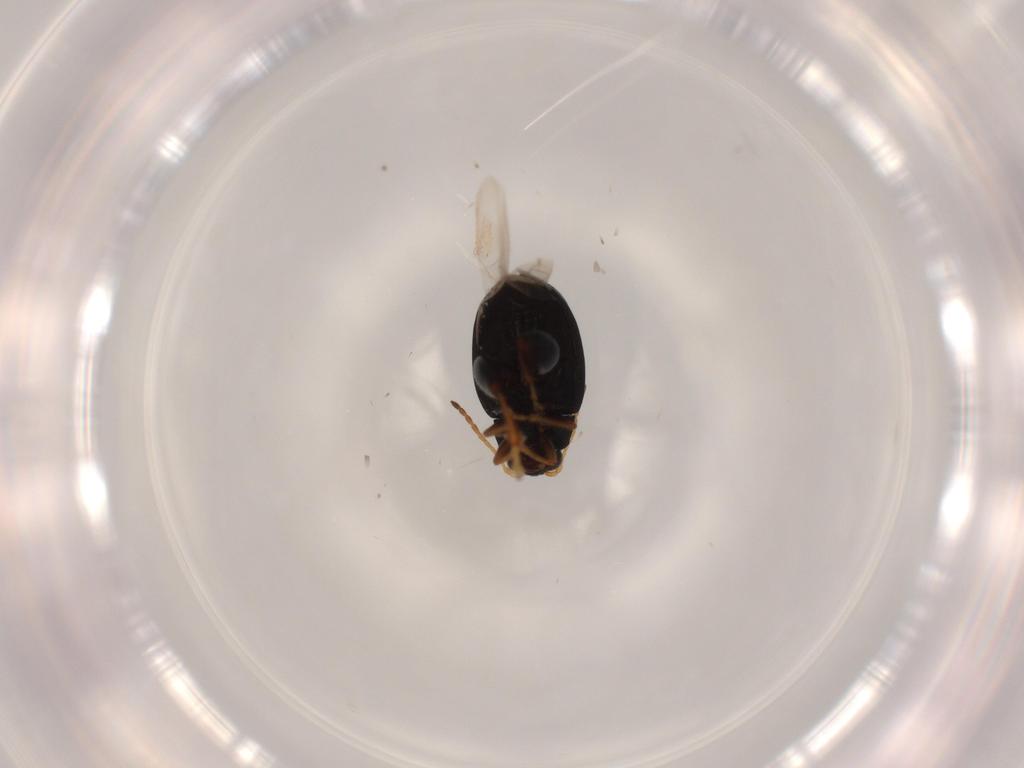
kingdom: Animalia
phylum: Arthropoda
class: Insecta
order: Coleoptera
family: Chrysomelidae
